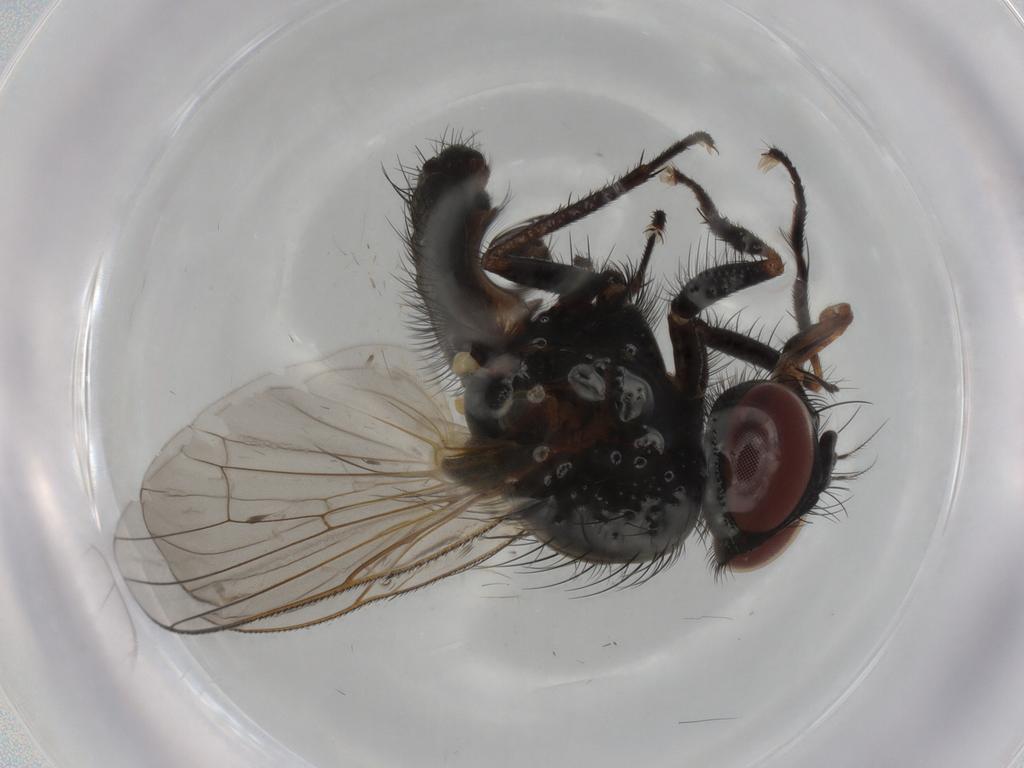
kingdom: Animalia
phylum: Arthropoda
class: Insecta
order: Diptera
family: Anthomyiidae
